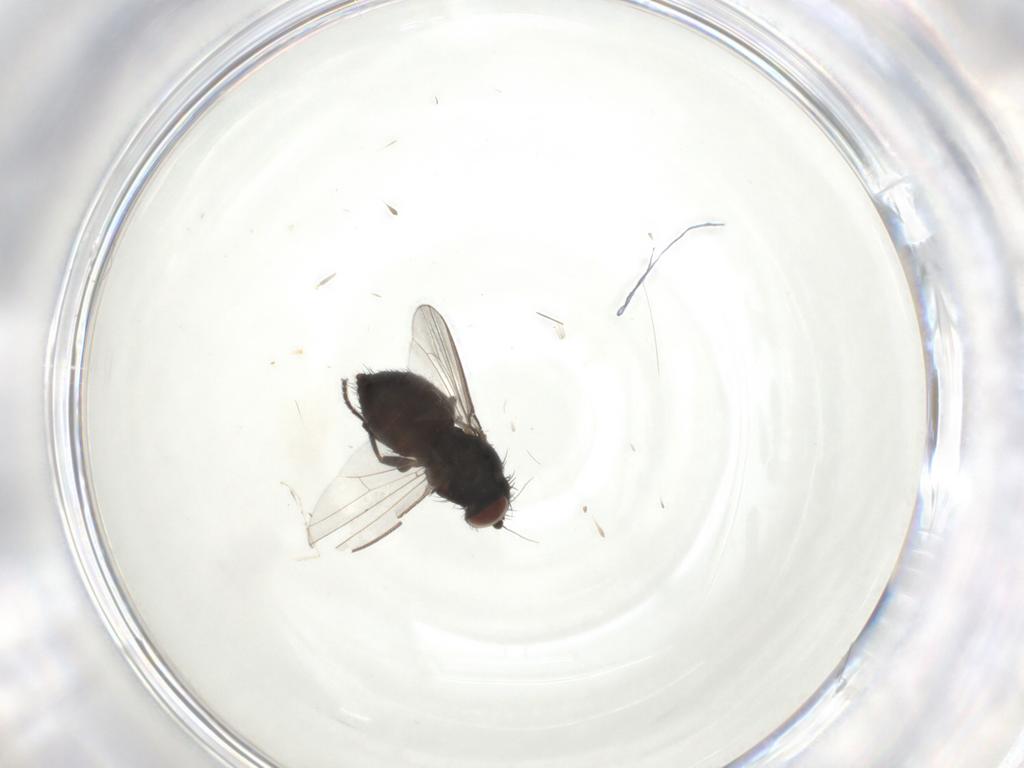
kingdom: Animalia
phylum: Arthropoda
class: Insecta
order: Diptera
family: Milichiidae
